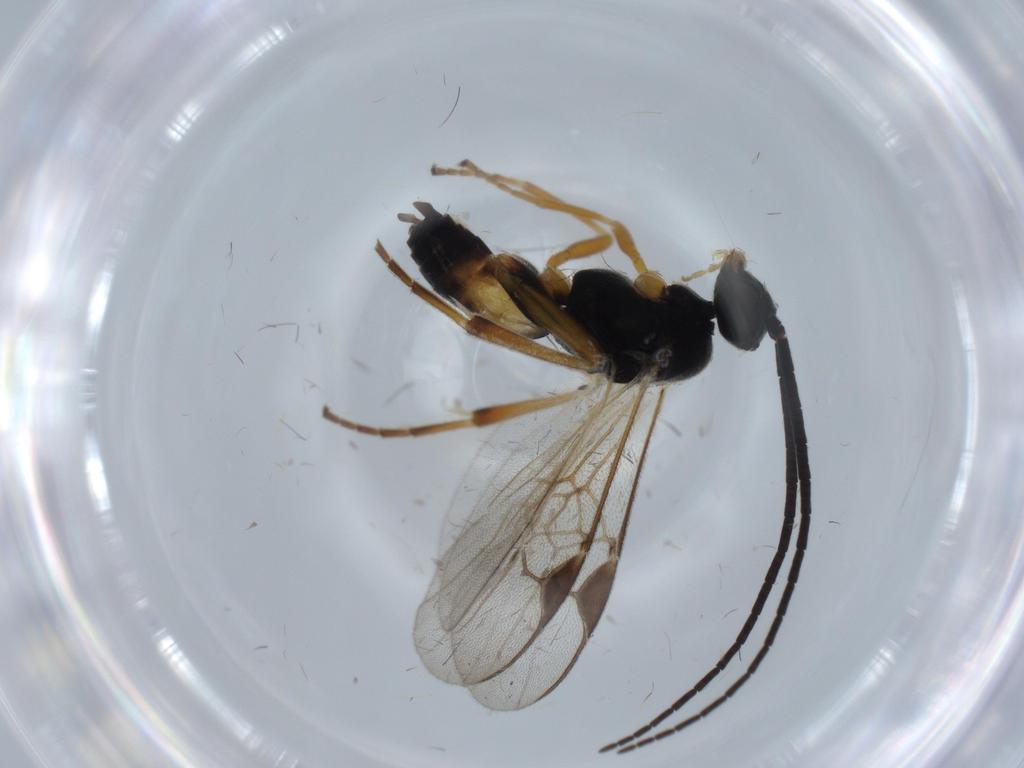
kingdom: Animalia
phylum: Arthropoda
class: Insecta
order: Hymenoptera
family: Braconidae
